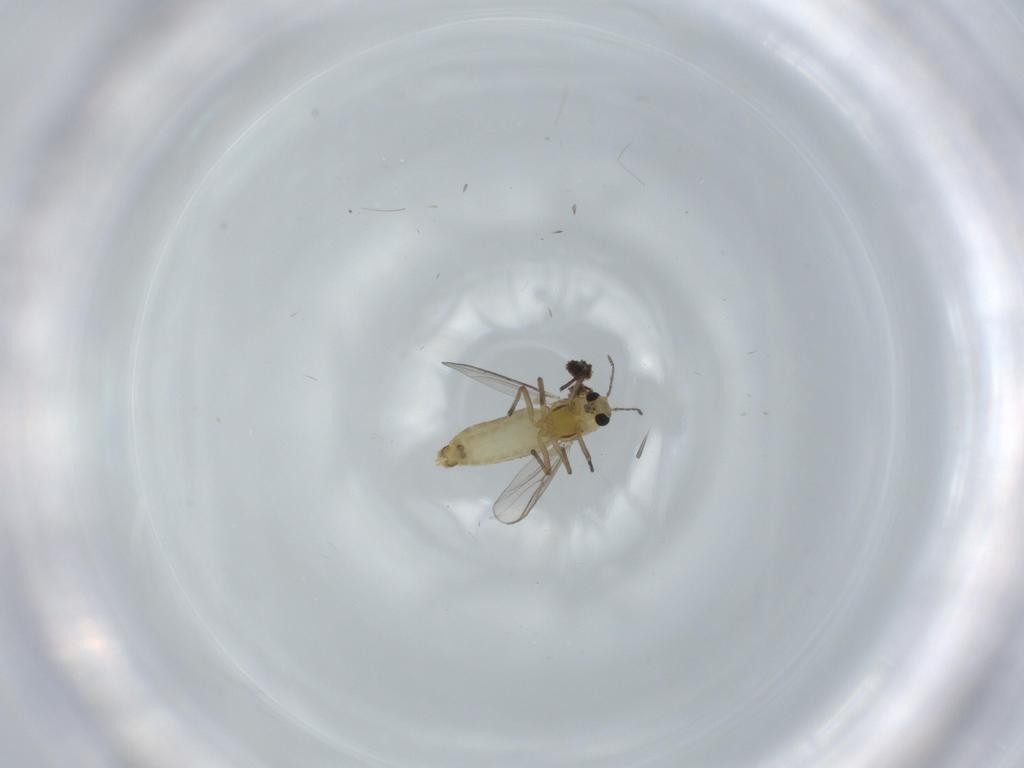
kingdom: Animalia
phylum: Arthropoda
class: Insecta
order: Diptera
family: Chironomidae
